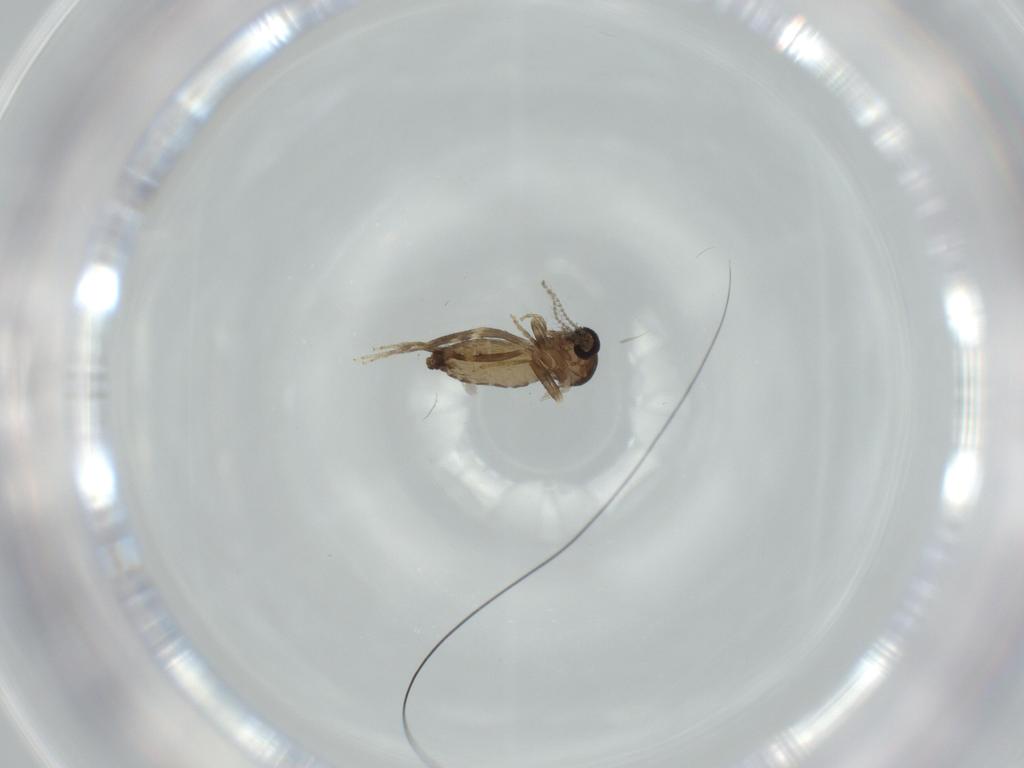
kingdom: Animalia
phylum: Arthropoda
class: Insecta
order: Diptera
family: Ceratopogonidae
